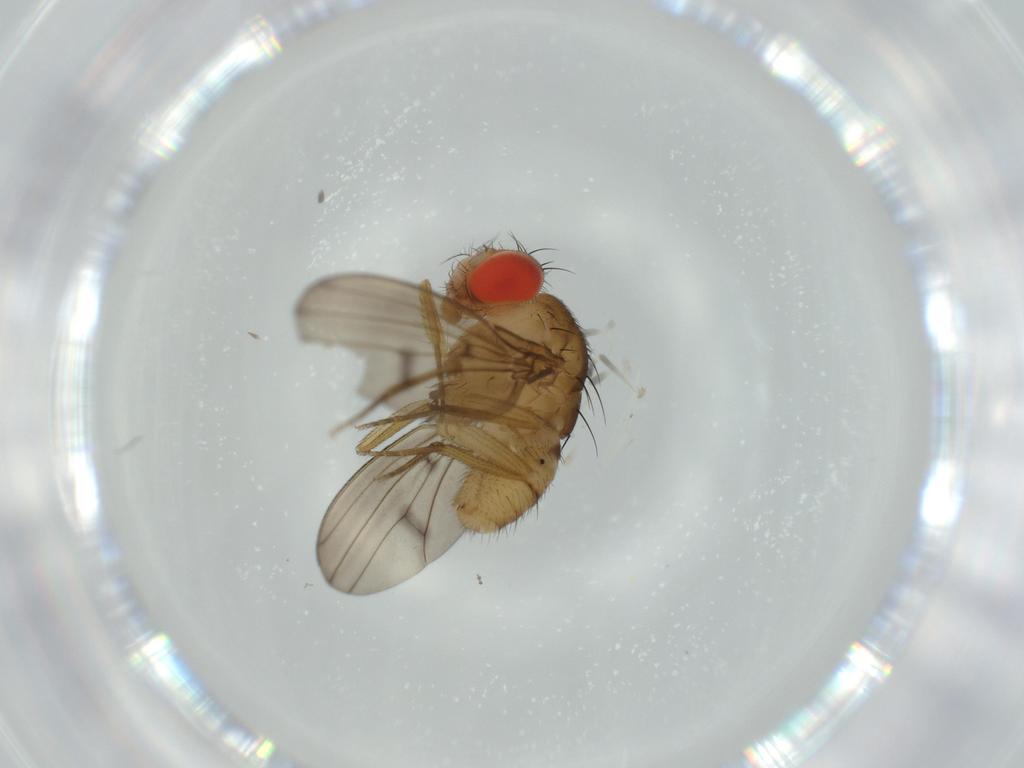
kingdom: Animalia
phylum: Arthropoda
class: Insecta
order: Diptera
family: Drosophilidae
